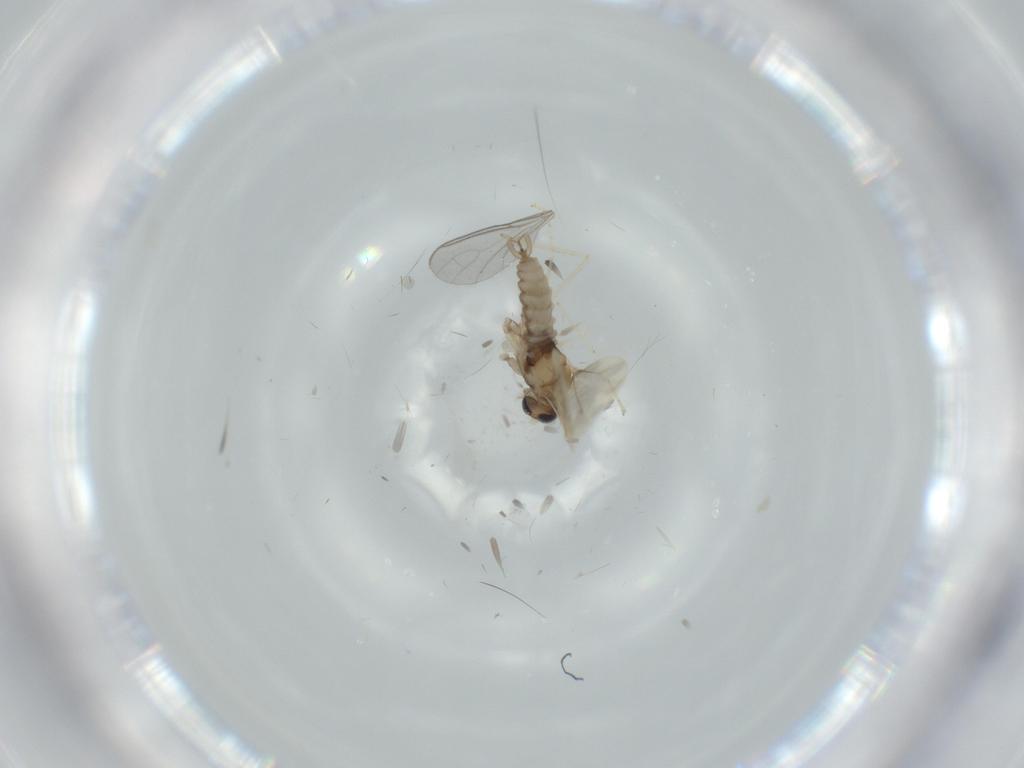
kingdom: Animalia
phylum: Arthropoda
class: Insecta
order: Diptera
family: Cecidomyiidae
